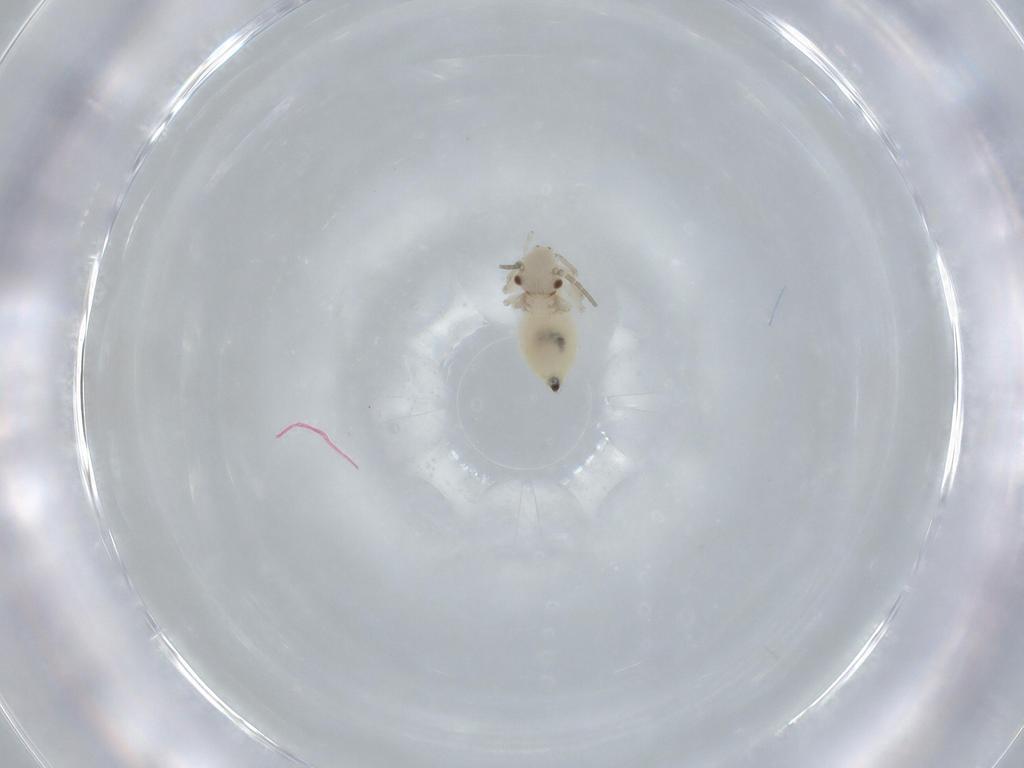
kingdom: Animalia
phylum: Arthropoda
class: Insecta
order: Psocodea
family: Caeciliusidae
